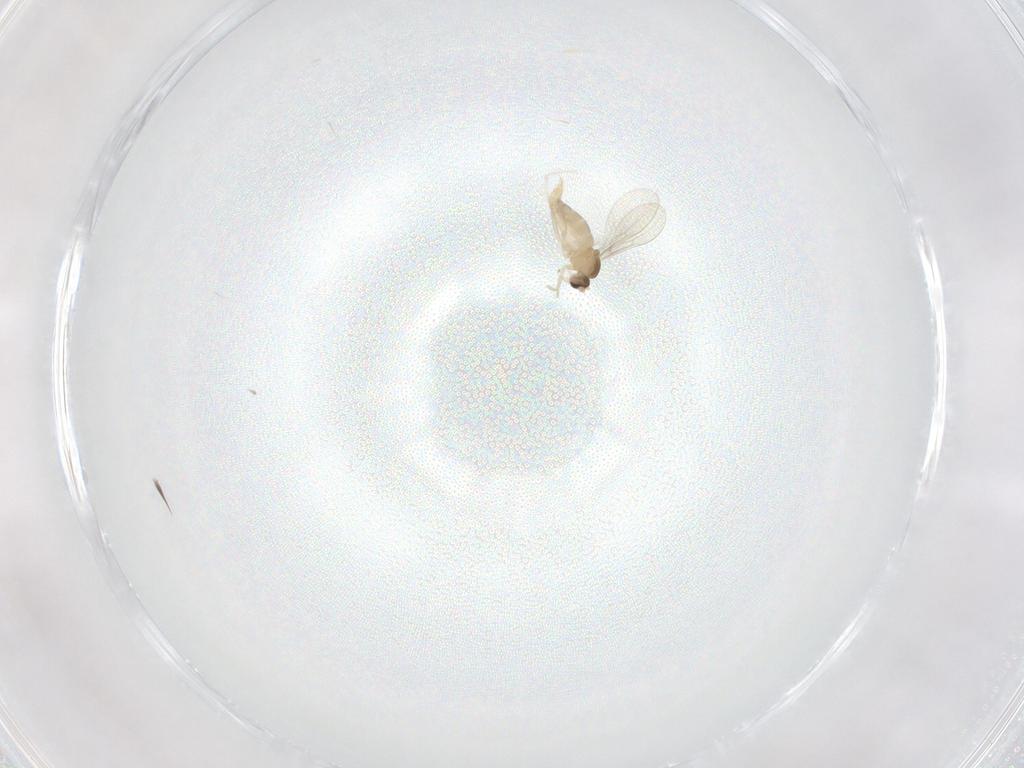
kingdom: Animalia
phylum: Arthropoda
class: Insecta
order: Diptera
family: Cecidomyiidae
